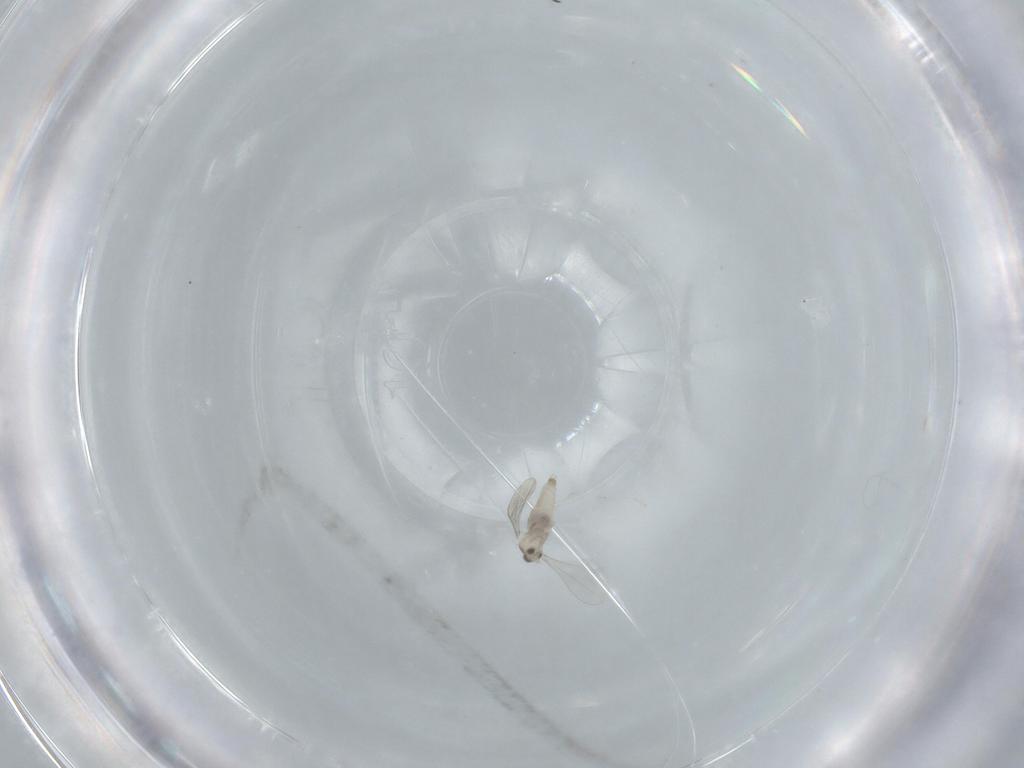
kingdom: Animalia
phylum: Arthropoda
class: Insecta
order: Diptera
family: Cecidomyiidae
